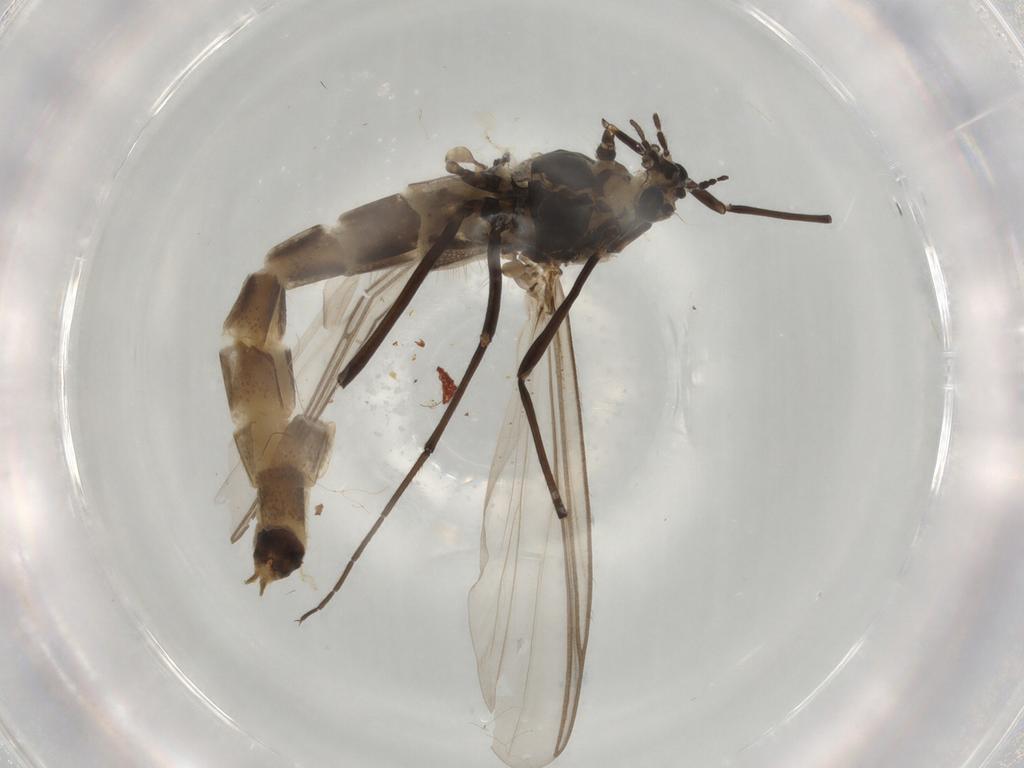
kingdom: Animalia
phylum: Arthropoda
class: Insecta
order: Diptera
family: Chironomidae
